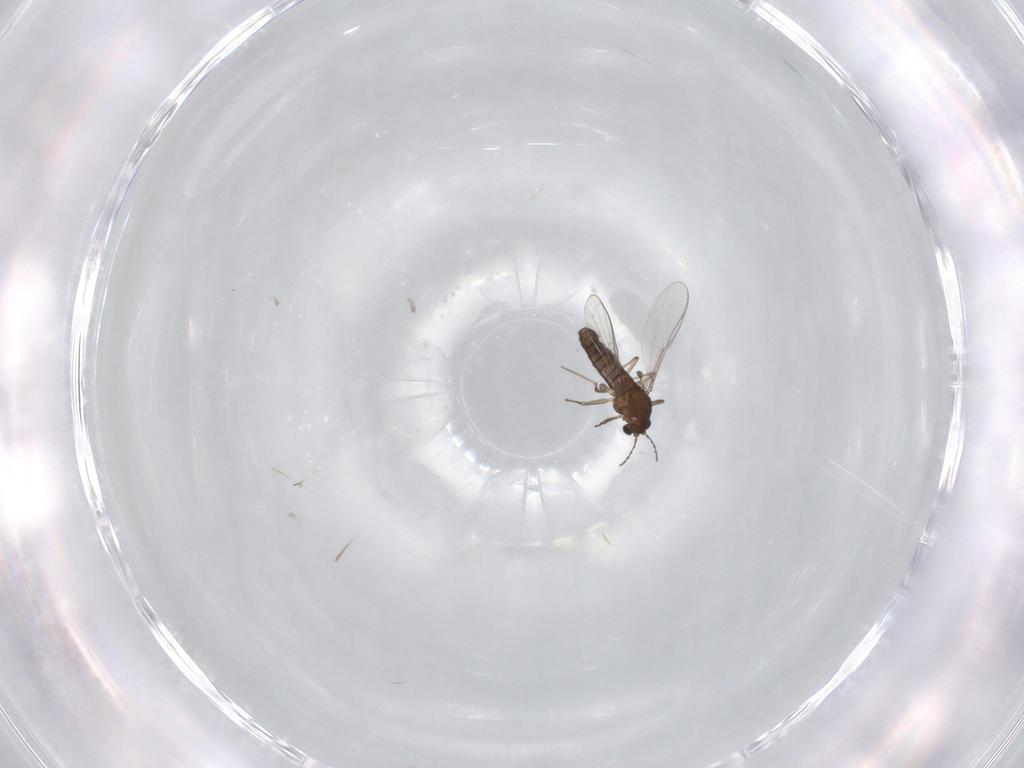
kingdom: Animalia
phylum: Arthropoda
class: Insecta
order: Diptera
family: Chironomidae
